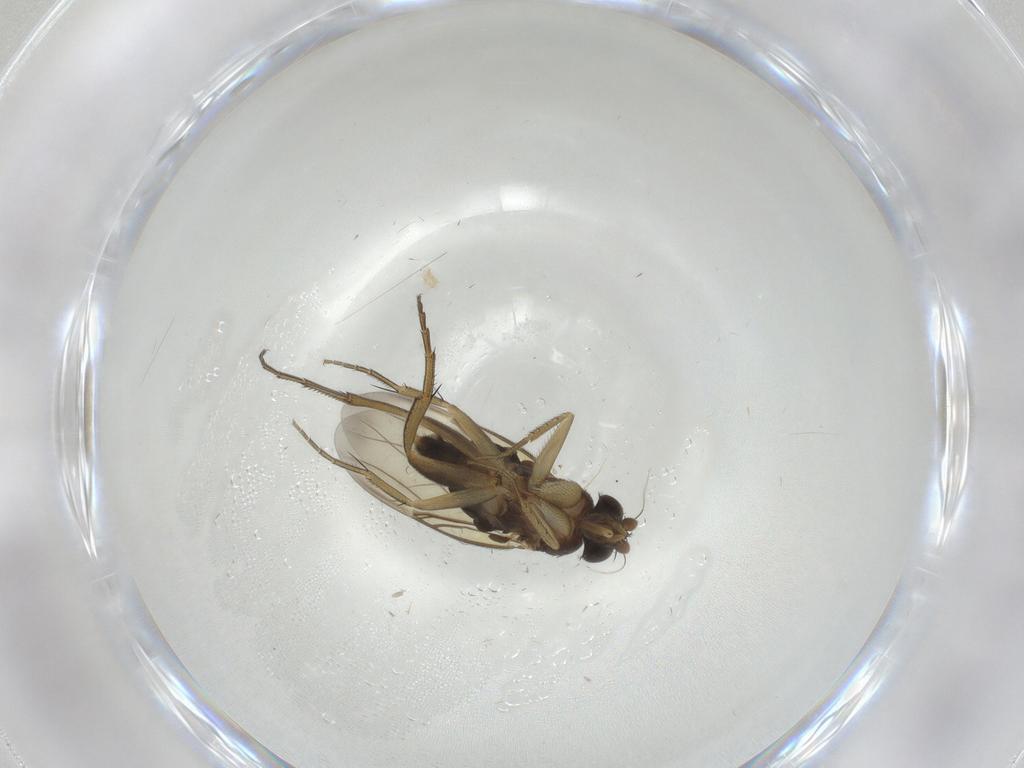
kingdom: Animalia
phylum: Arthropoda
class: Insecta
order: Diptera
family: Phoridae
